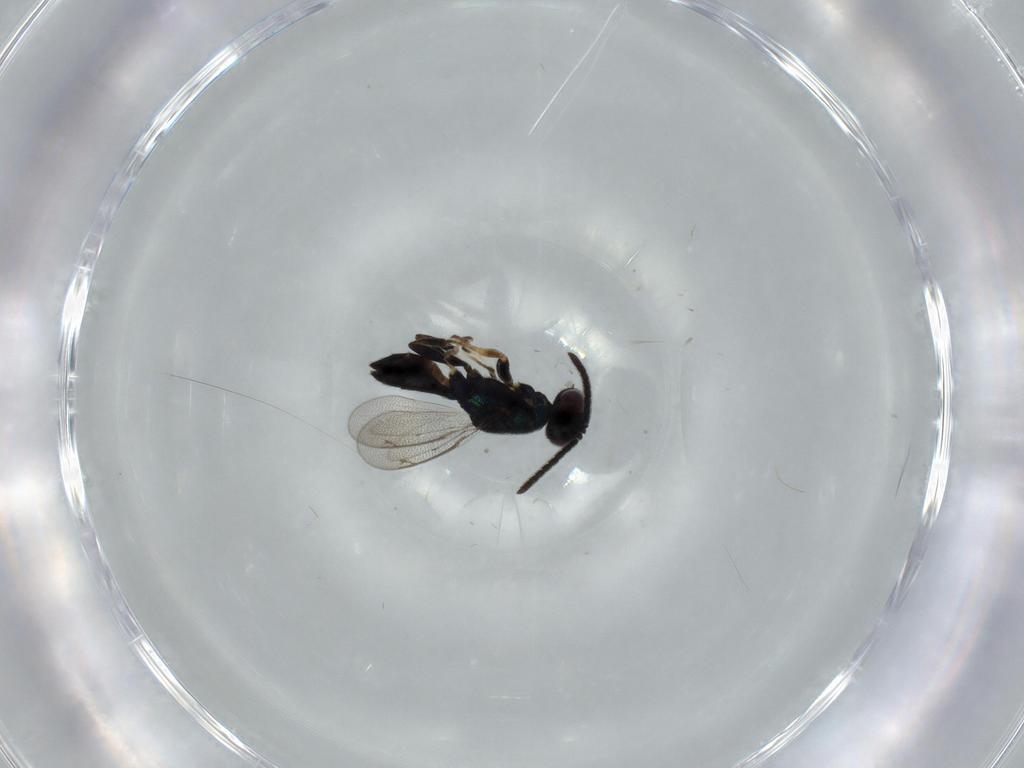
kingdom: Animalia
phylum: Arthropoda
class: Insecta
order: Hymenoptera
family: Eupelmidae
